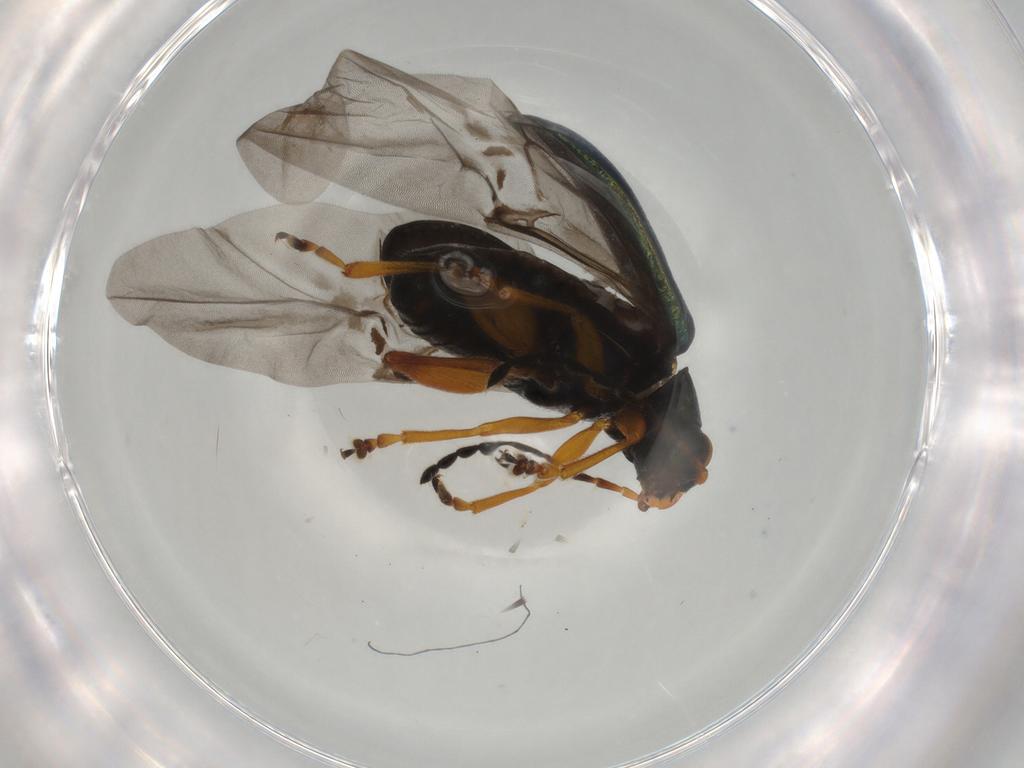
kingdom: Animalia
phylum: Arthropoda
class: Insecta
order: Coleoptera
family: Chrysomelidae
